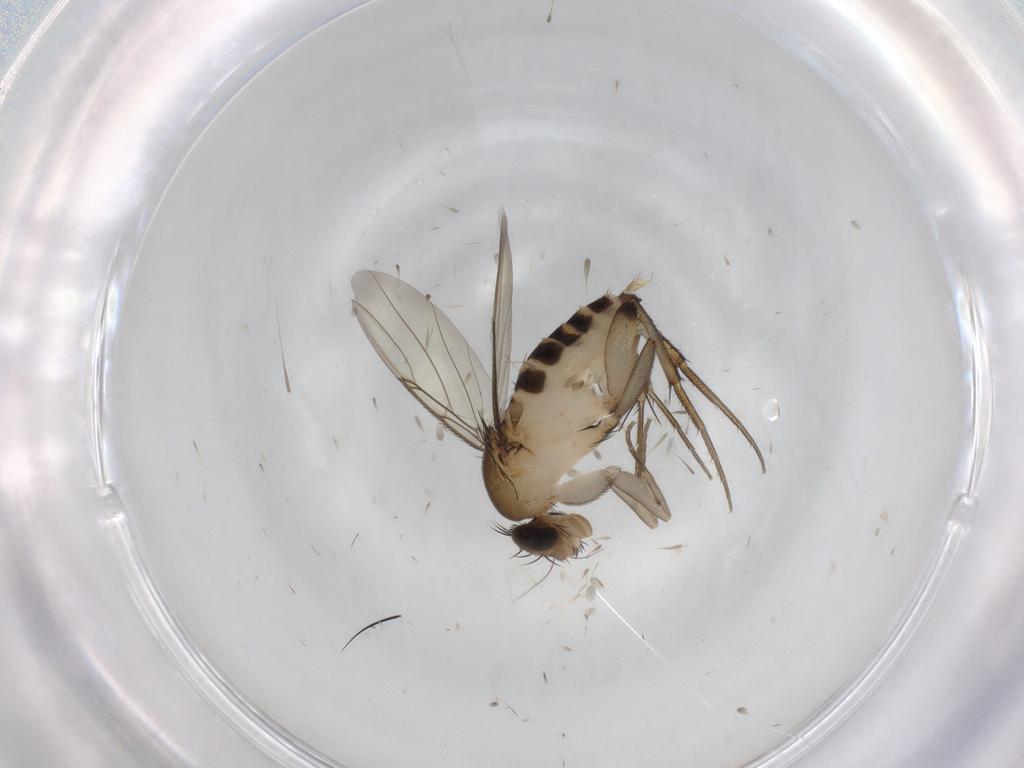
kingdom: Animalia
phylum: Arthropoda
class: Insecta
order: Diptera
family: Phoridae
